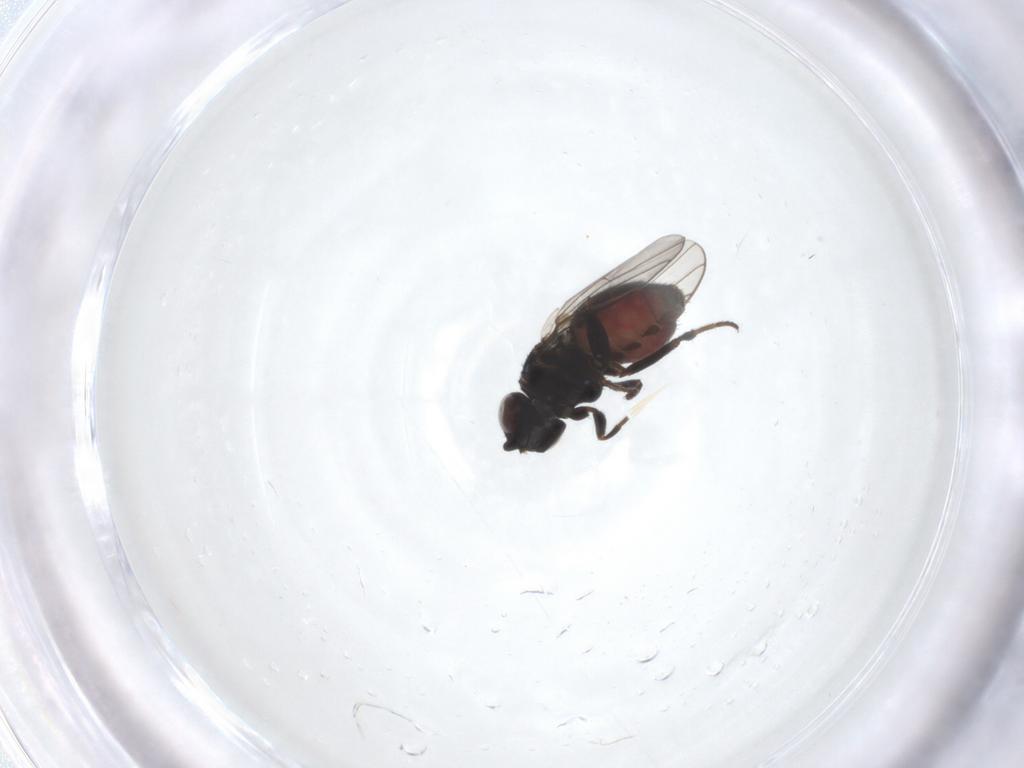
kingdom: Animalia
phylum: Arthropoda
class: Insecta
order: Diptera
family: Chloropidae
